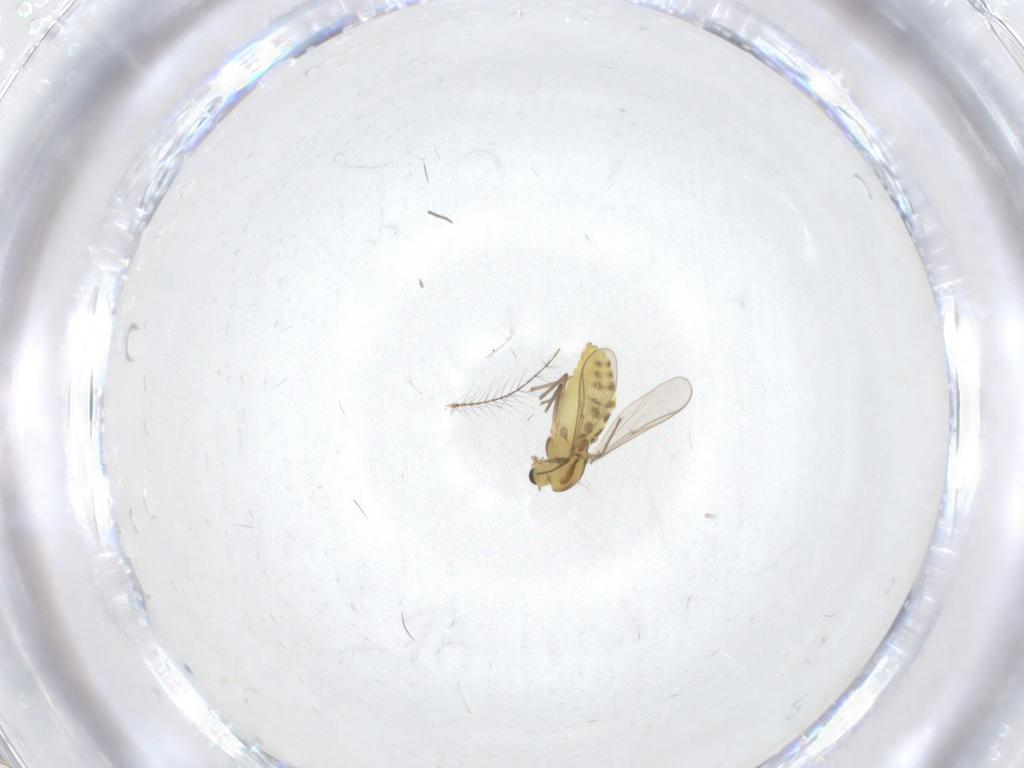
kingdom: Animalia
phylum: Arthropoda
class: Insecta
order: Diptera
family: Chironomidae
